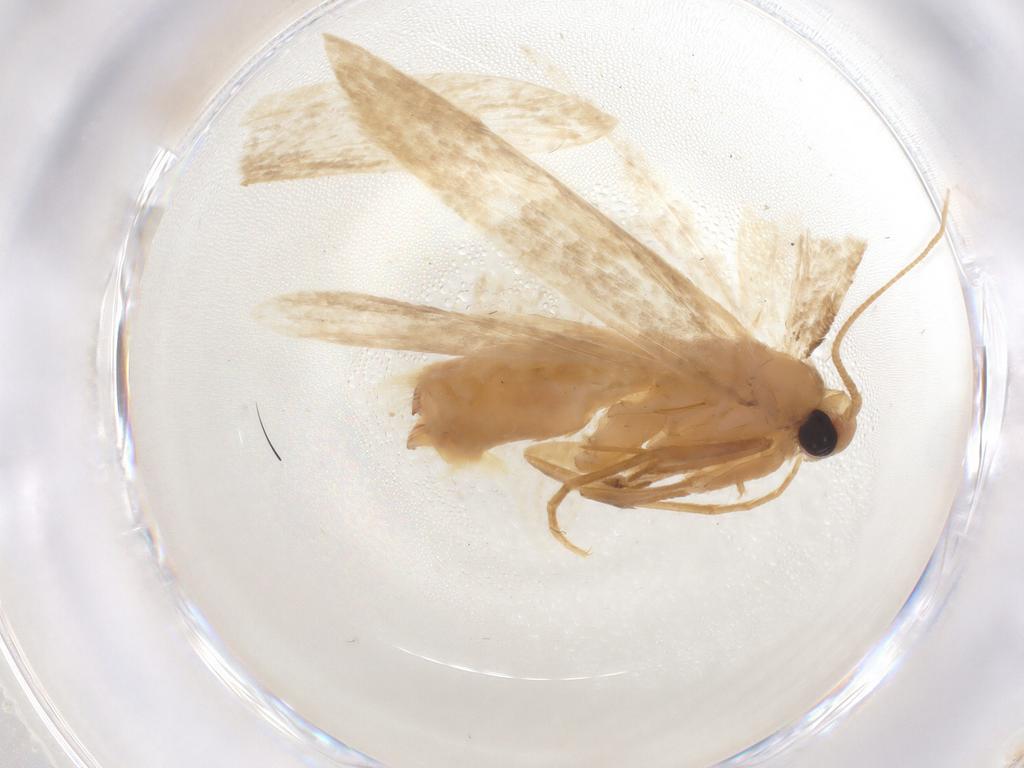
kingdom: Animalia
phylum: Arthropoda
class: Insecta
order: Lepidoptera
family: Tineidae
